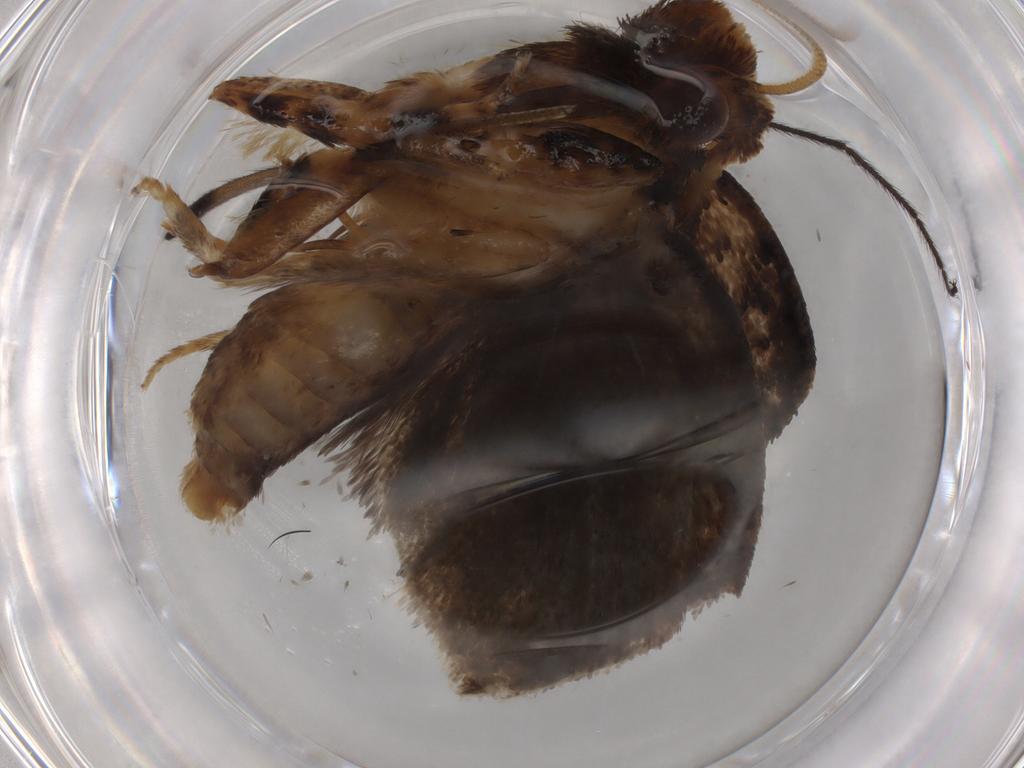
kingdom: Animalia
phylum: Arthropoda
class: Insecta
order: Lepidoptera
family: Tineidae
